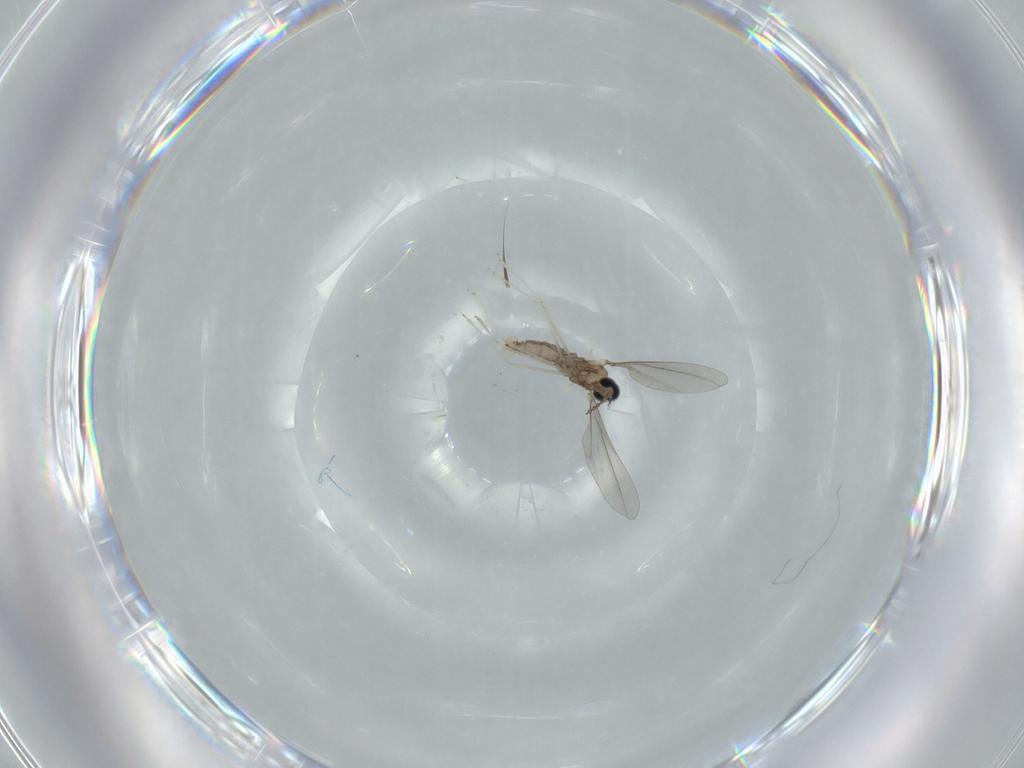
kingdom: Animalia
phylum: Arthropoda
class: Insecta
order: Diptera
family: Cecidomyiidae
